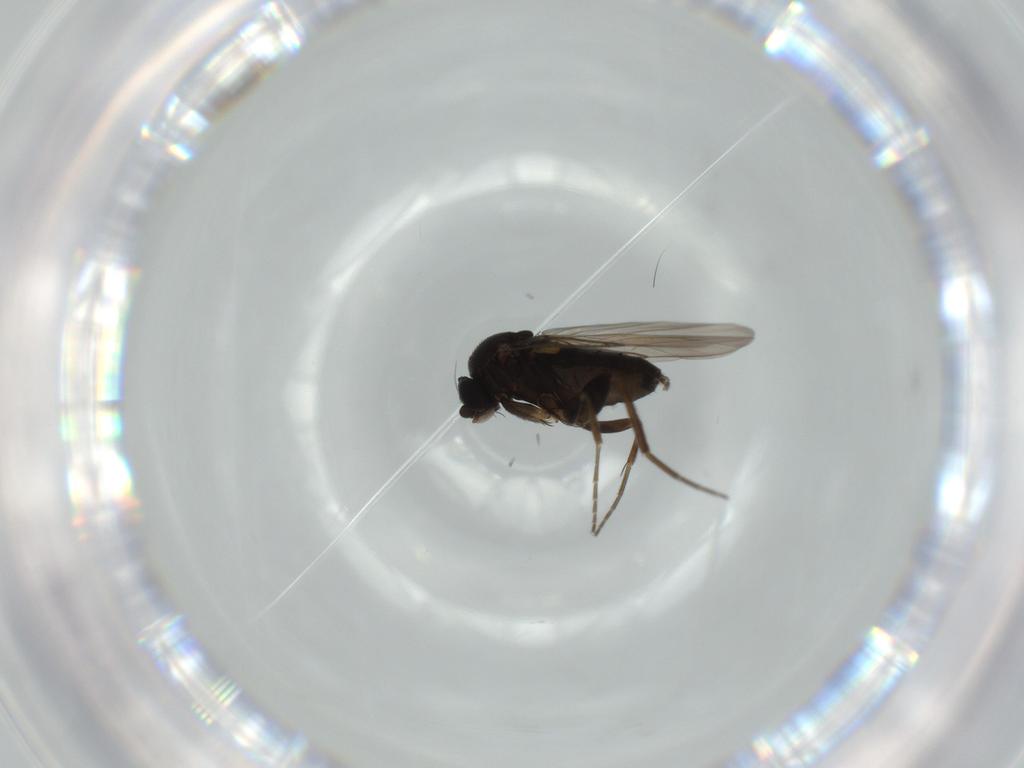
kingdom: Animalia
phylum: Arthropoda
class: Insecta
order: Diptera
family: Phoridae
